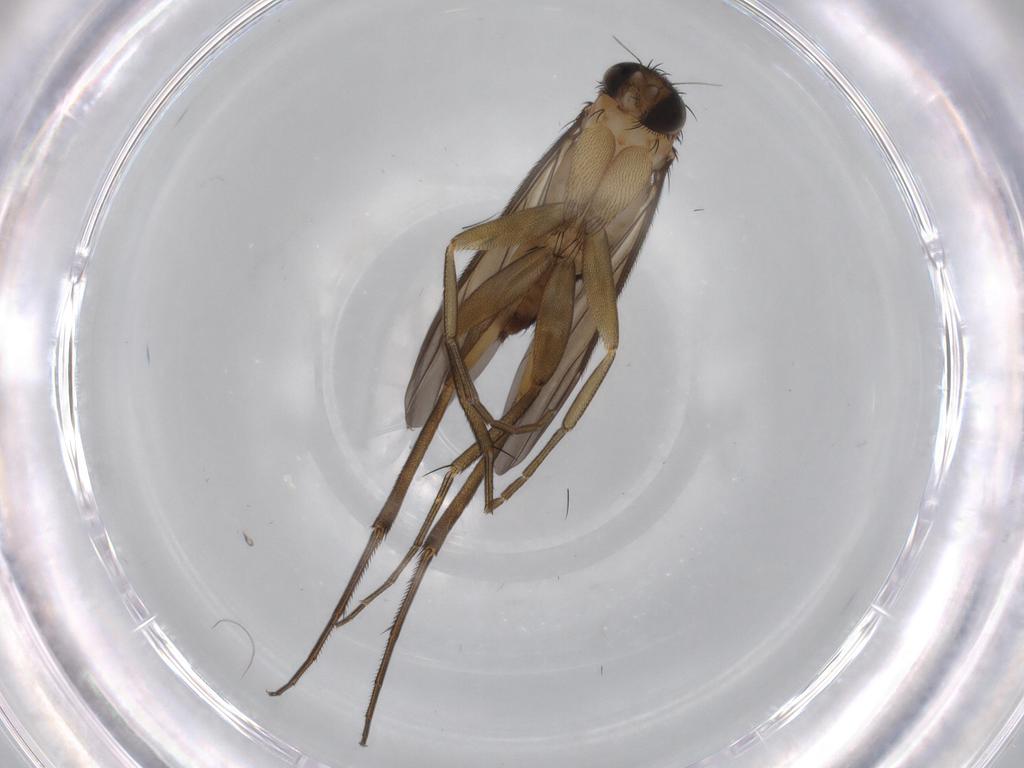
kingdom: Animalia
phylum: Arthropoda
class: Insecta
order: Diptera
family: Phoridae
